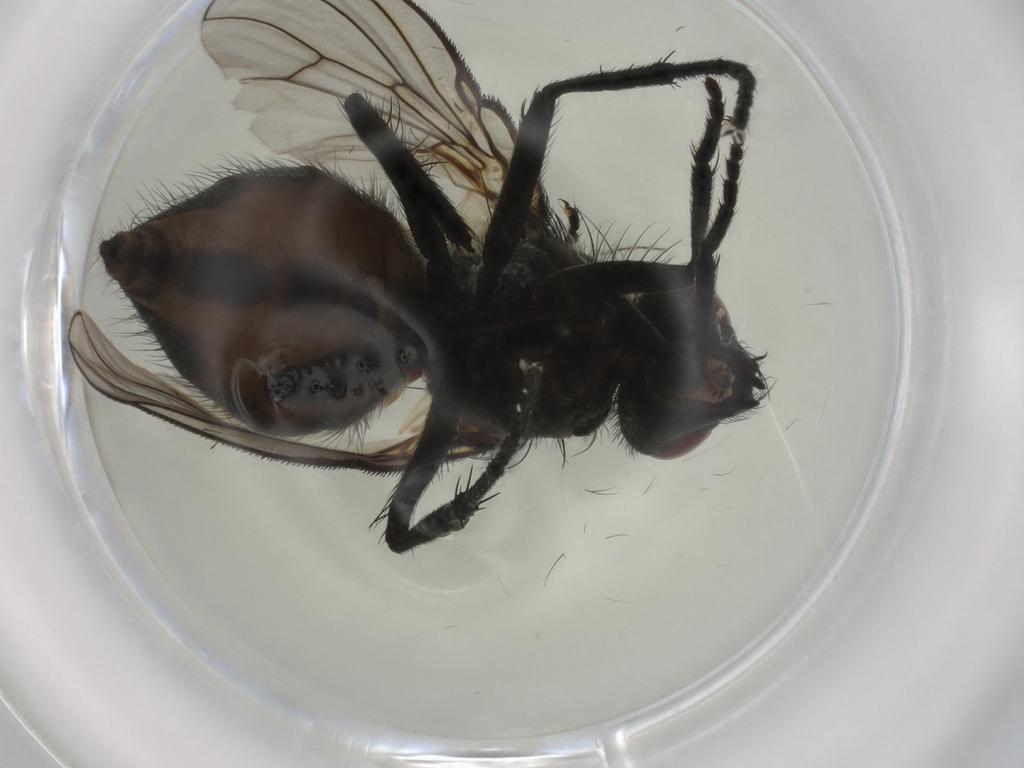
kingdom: Animalia
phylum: Arthropoda
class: Insecta
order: Diptera
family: Muscidae
